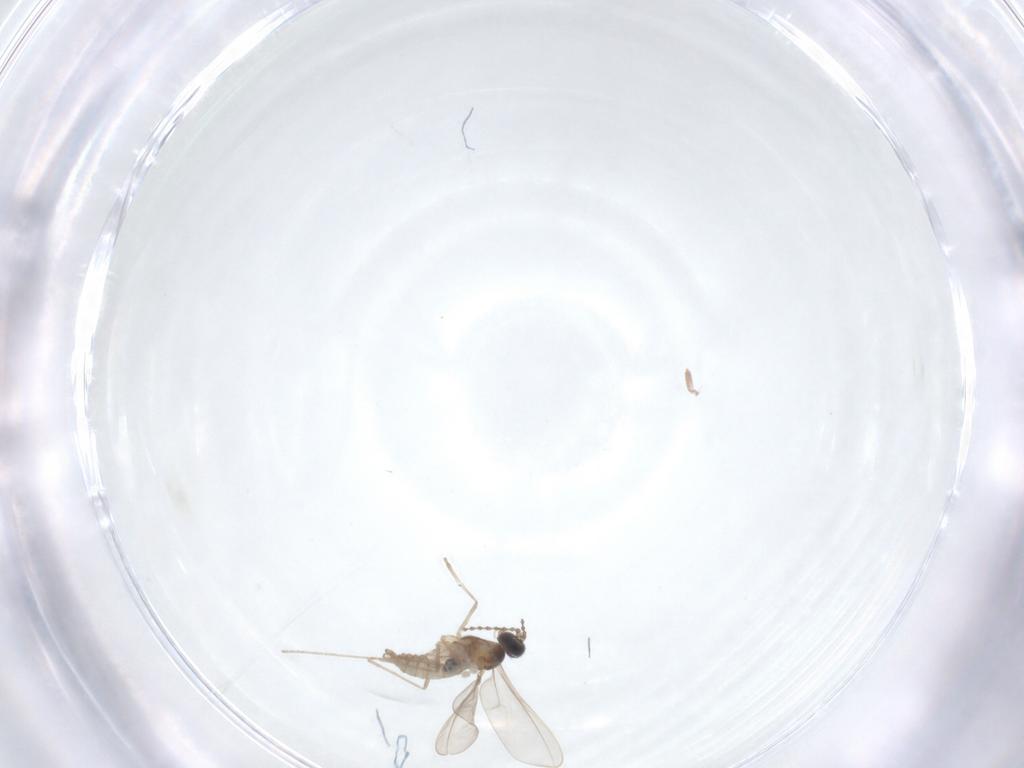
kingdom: Animalia
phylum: Arthropoda
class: Insecta
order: Diptera
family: Cecidomyiidae
